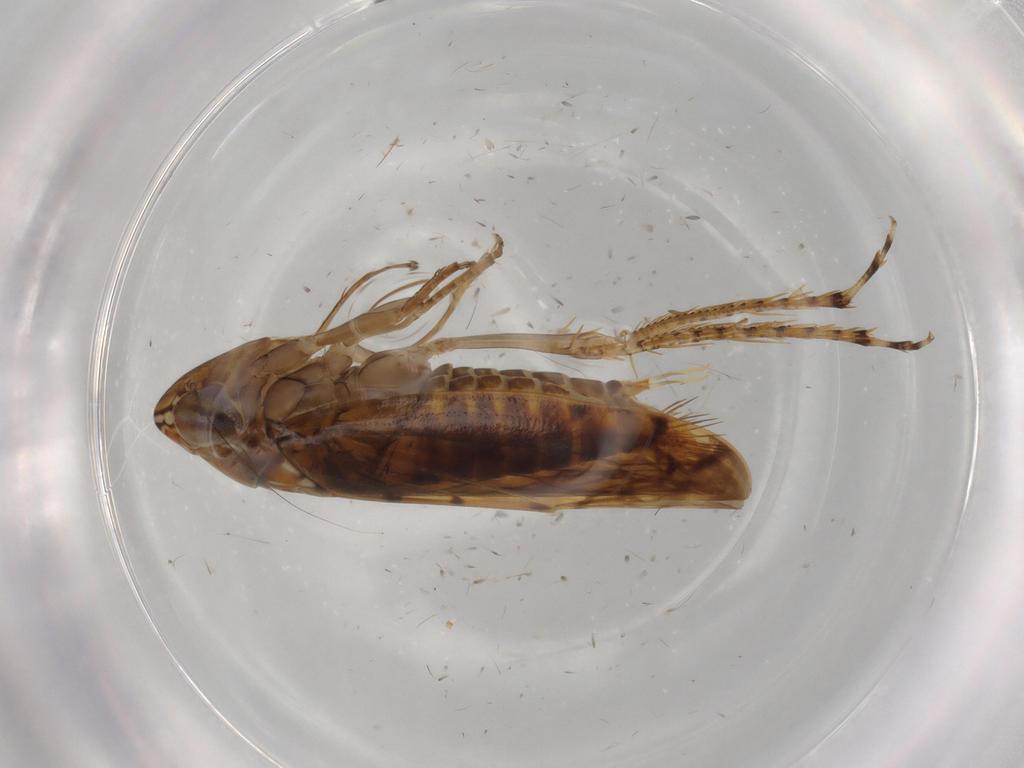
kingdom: Animalia
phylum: Arthropoda
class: Insecta
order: Hemiptera
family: Cicadellidae
